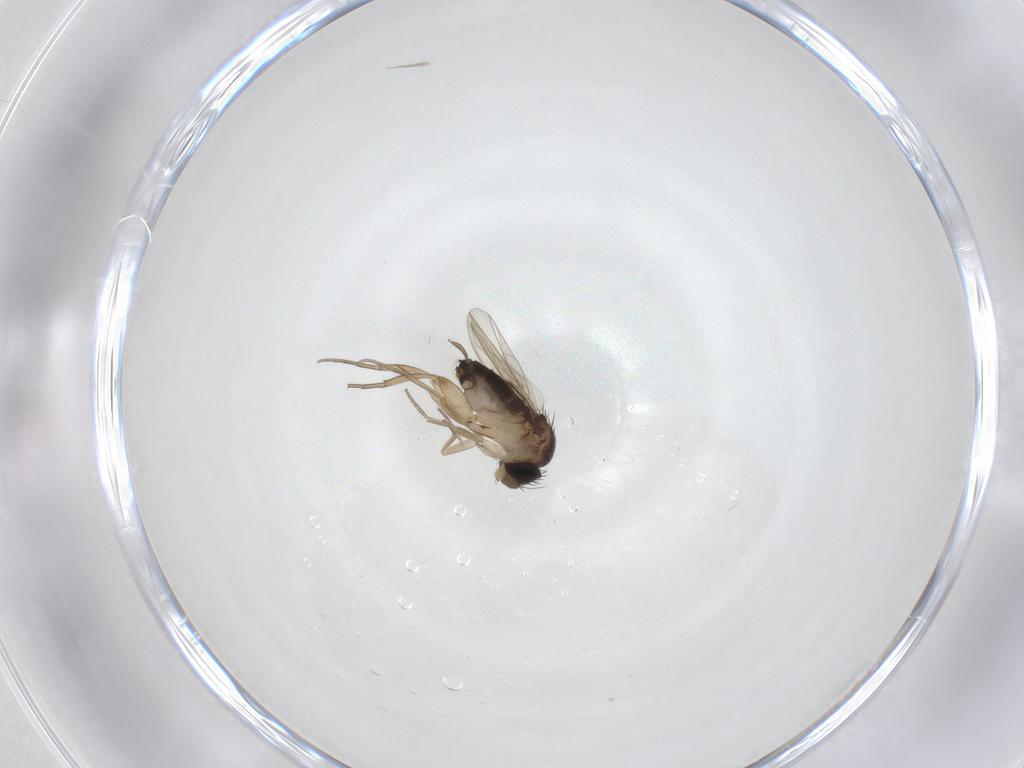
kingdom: Animalia
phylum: Arthropoda
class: Insecta
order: Diptera
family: Phoridae
